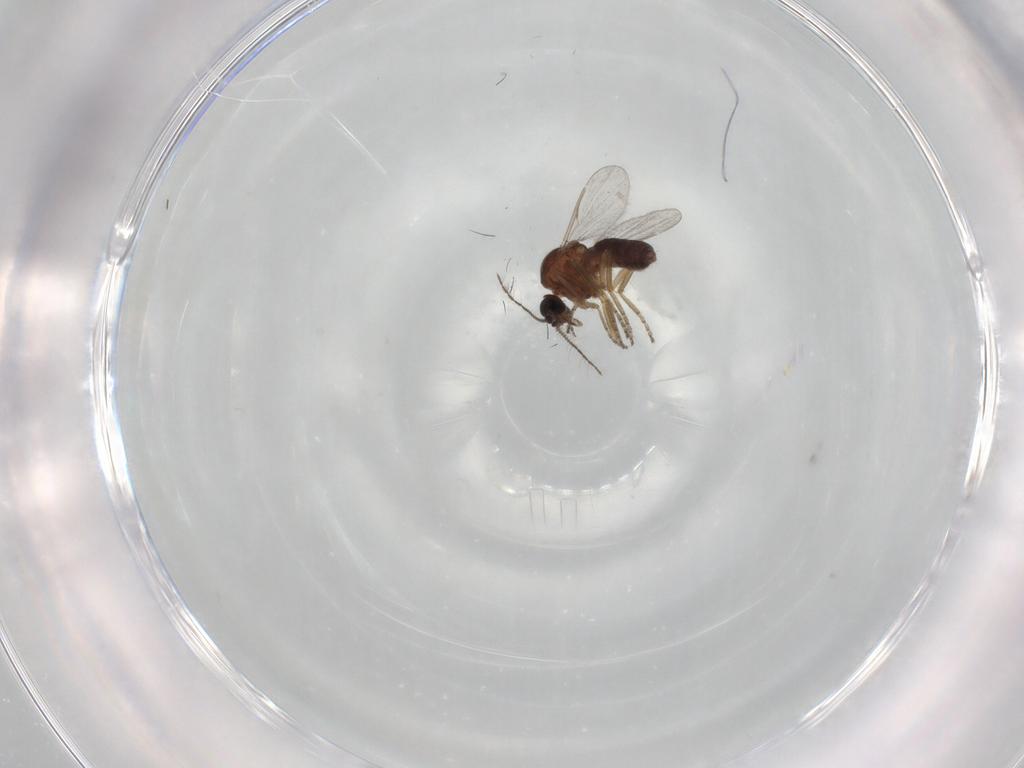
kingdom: Animalia
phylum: Arthropoda
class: Insecta
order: Diptera
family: Ceratopogonidae
